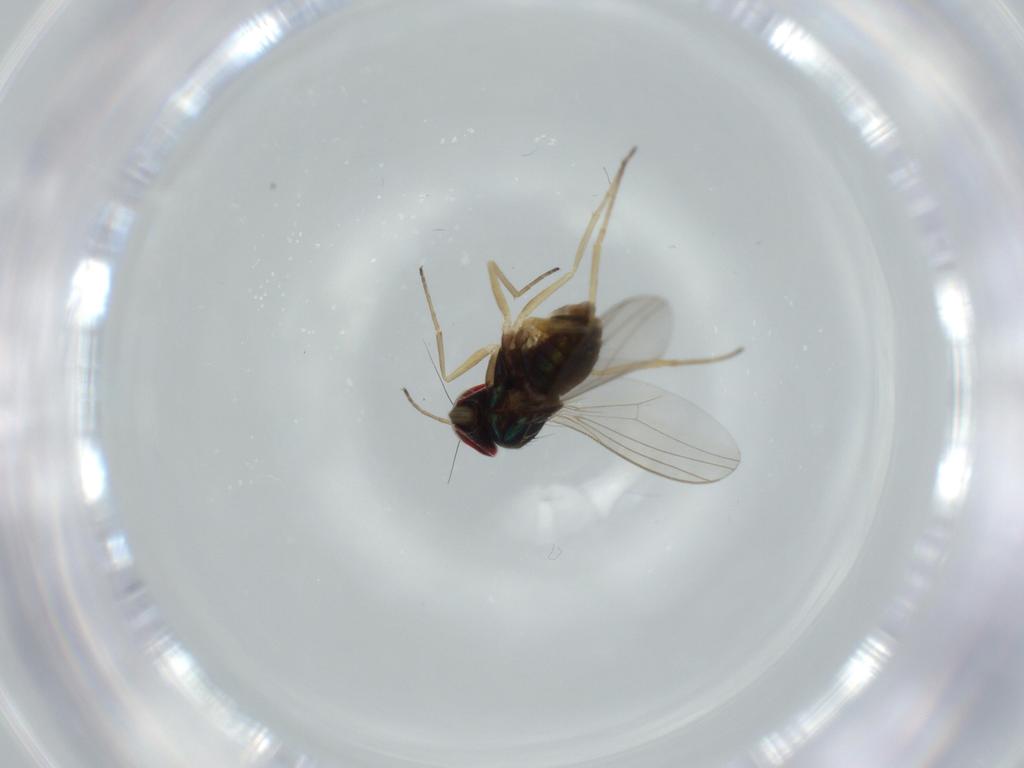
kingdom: Animalia
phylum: Arthropoda
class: Insecta
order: Diptera
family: Dolichopodidae
